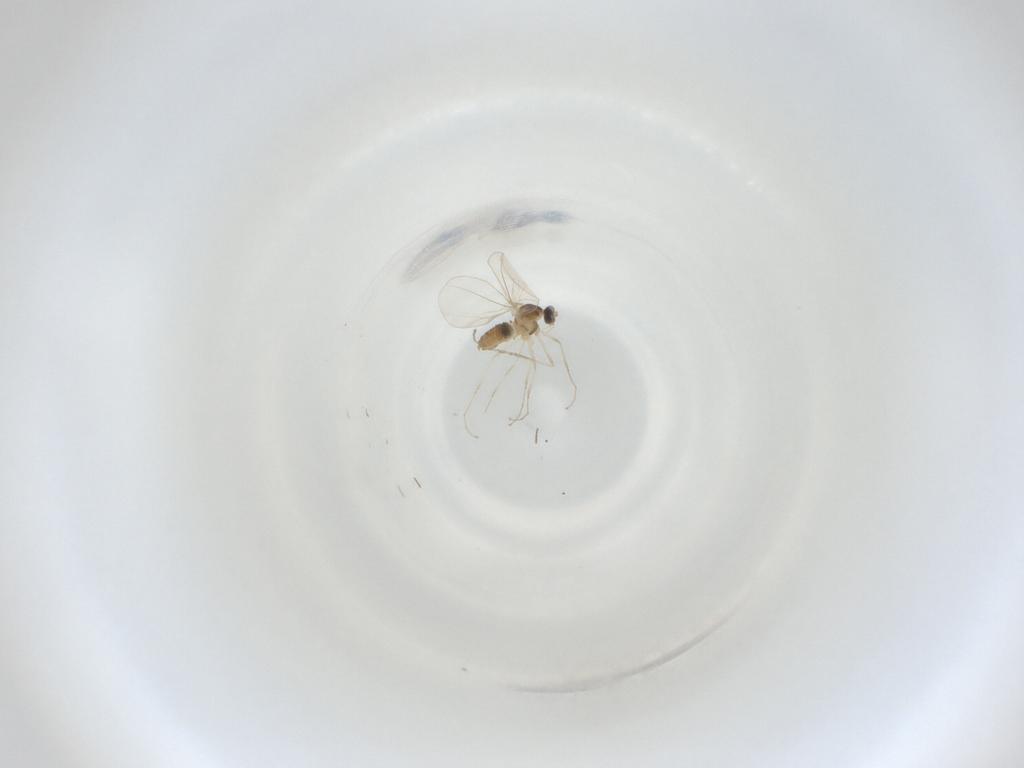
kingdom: Animalia
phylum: Arthropoda
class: Insecta
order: Diptera
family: Cecidomyiidae
